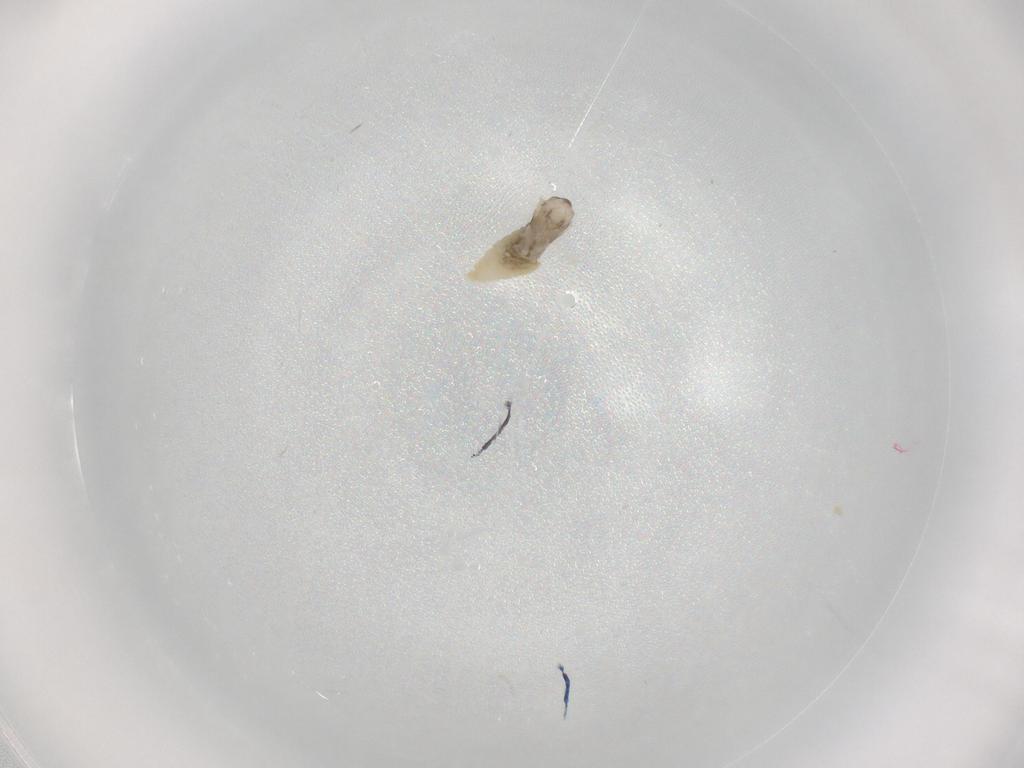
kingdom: Animalia
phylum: Arthropoda
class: Insecta
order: Diptera
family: Cecidomyiidae
